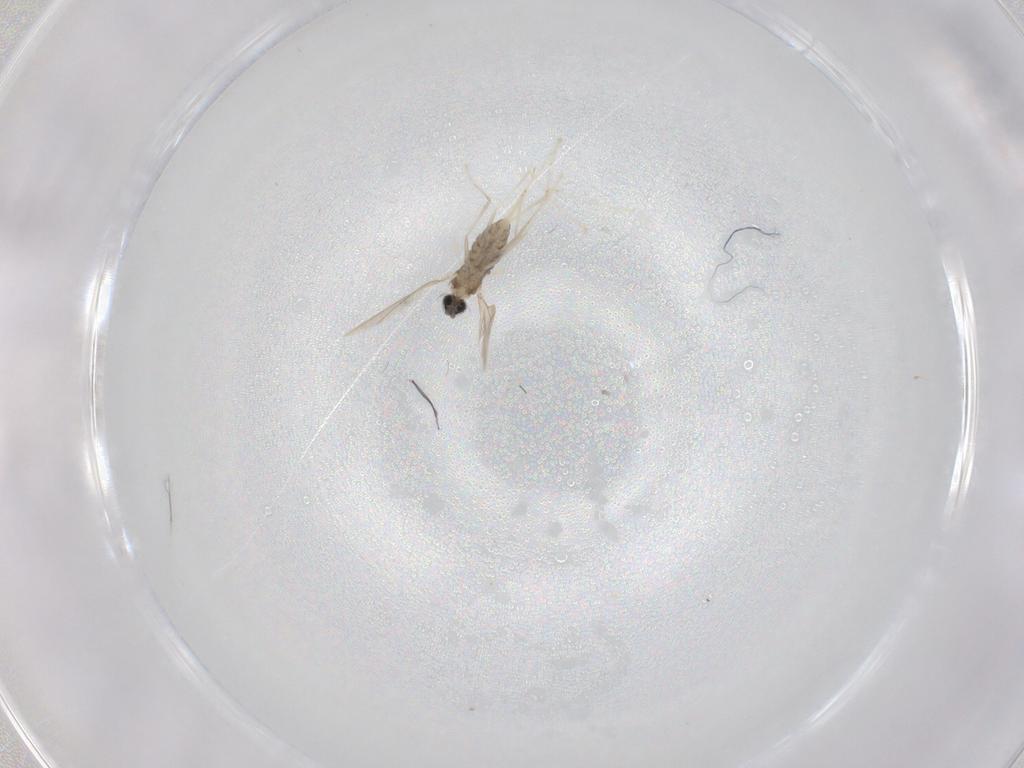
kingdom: Animalia
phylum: Arthropoda
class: Insecta
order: Diptera
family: Cecidomyiidae
